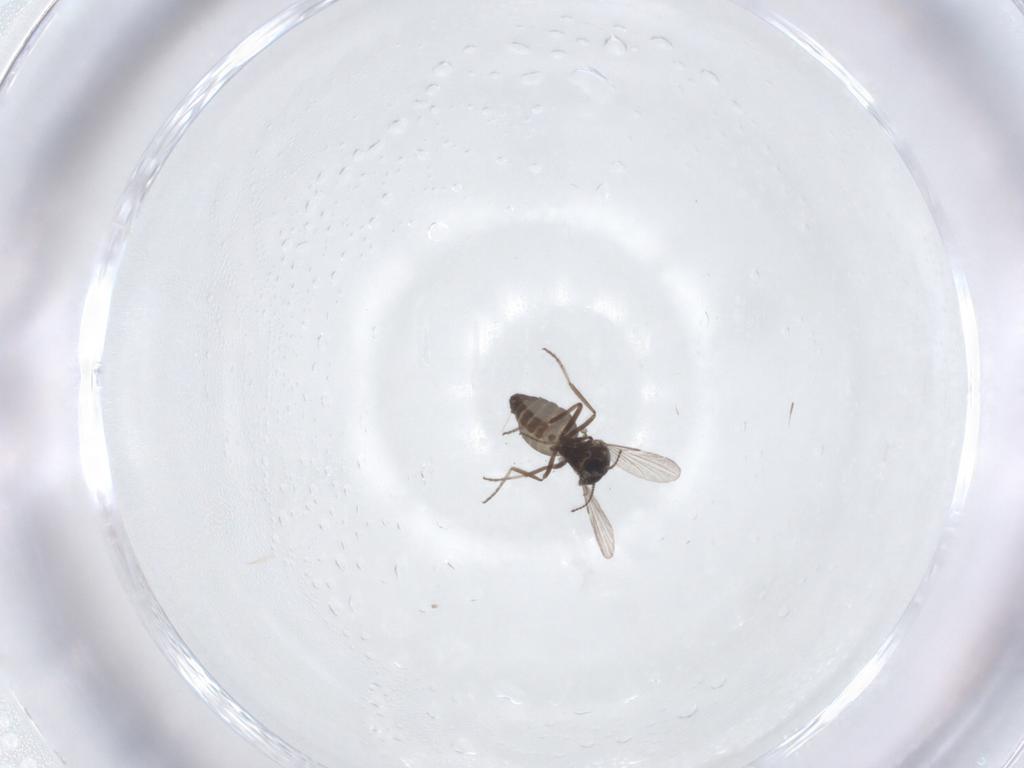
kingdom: Animalia
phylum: Arthropoda
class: Insecta
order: Diptera
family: Ceratopogonidae
